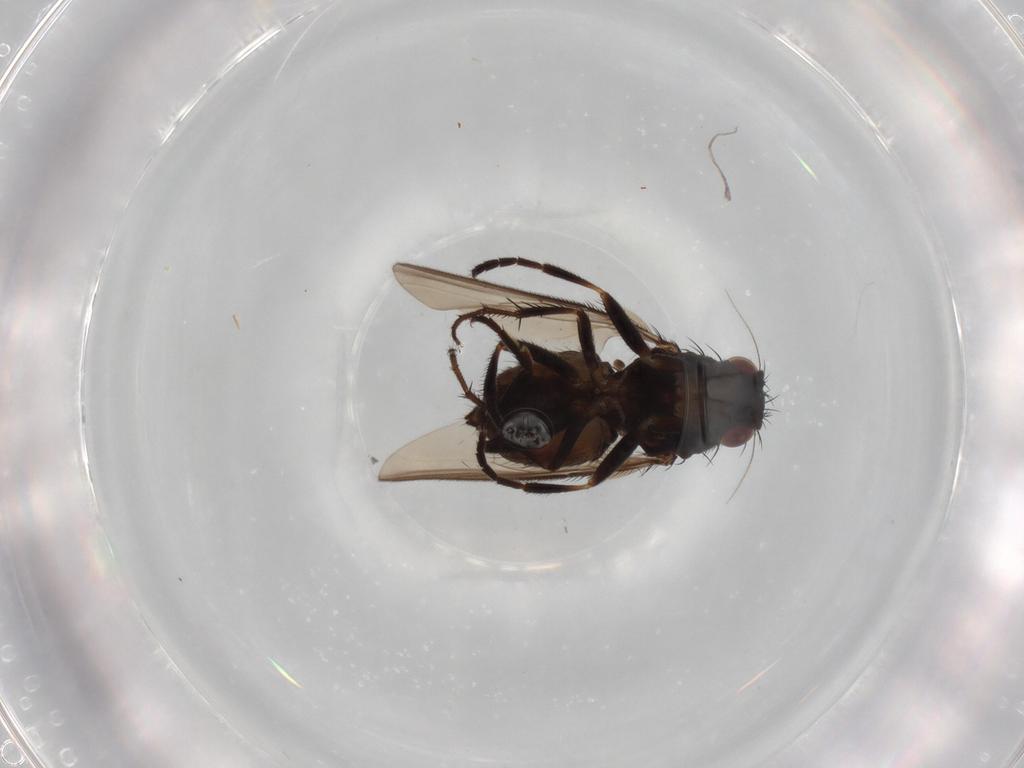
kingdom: Animalia
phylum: Arthropoda
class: Insecta
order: Diptera
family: Sphaeroceridae
